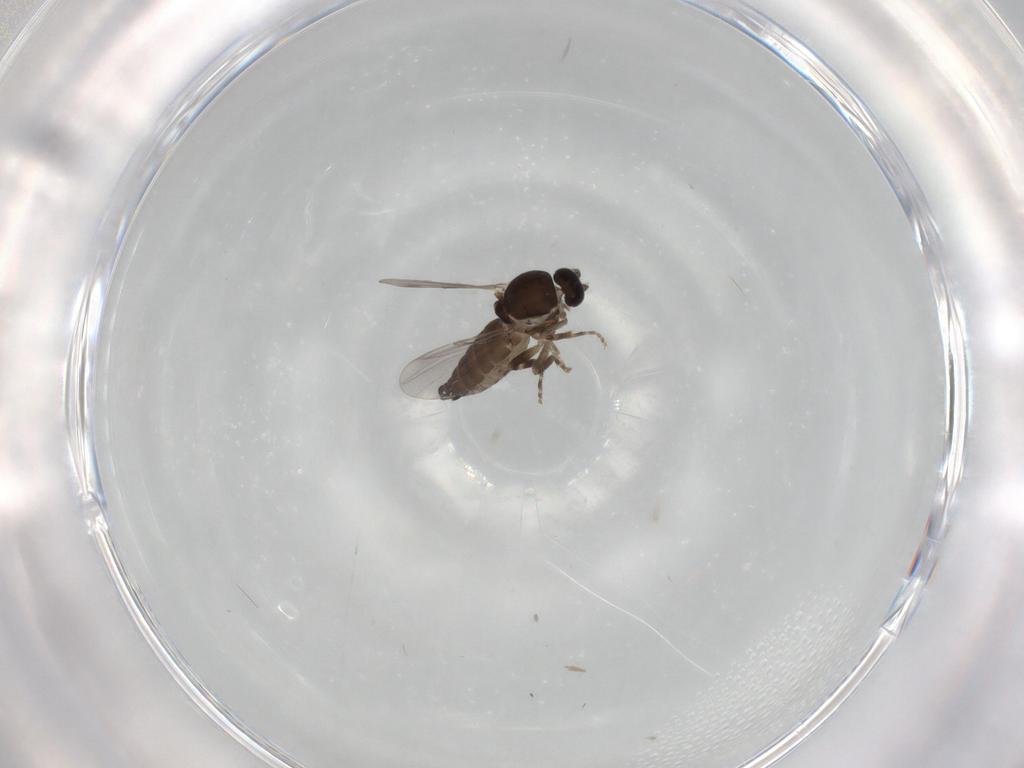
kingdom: Animalia
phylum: Arthropoda
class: Insecta
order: Diptera
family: Ceratopogonidae
